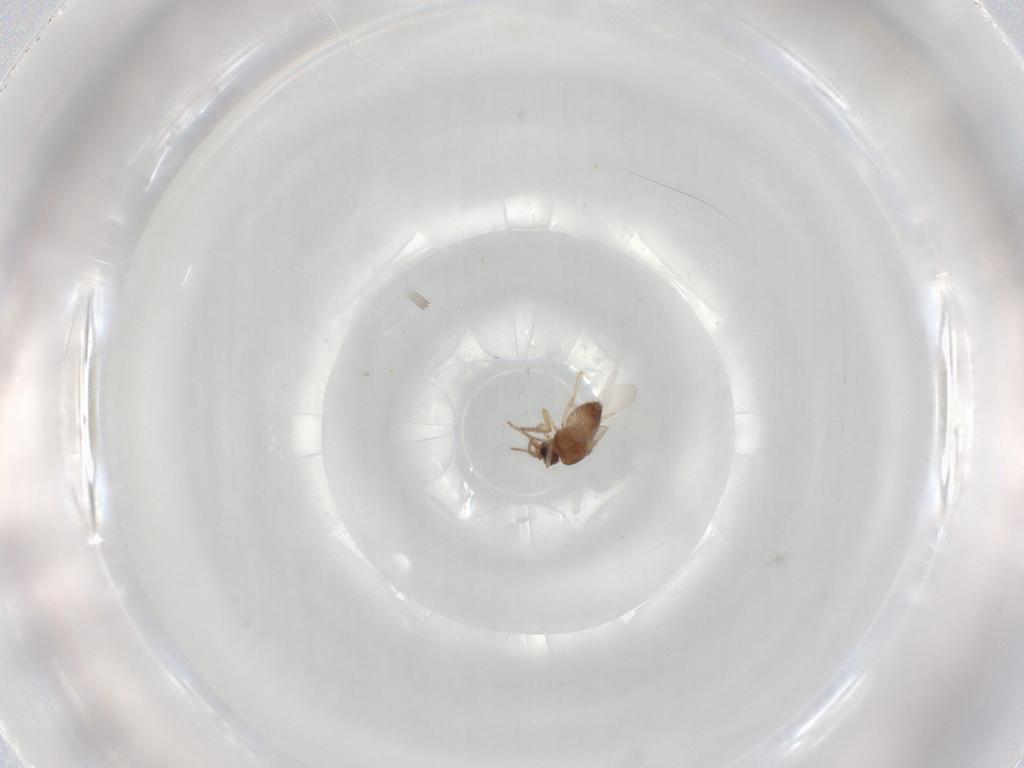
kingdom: Animalia
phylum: Arthropoda
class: Insecta
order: Diptera
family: Ceratopogonidae
